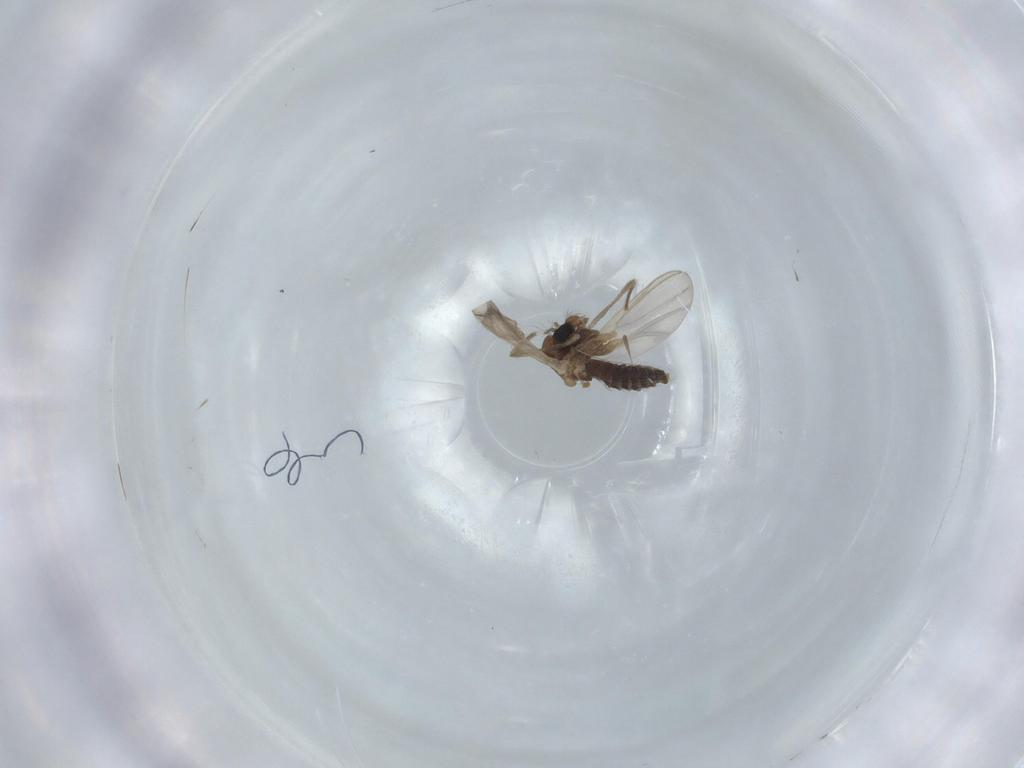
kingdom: Animalia
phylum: Arthropoda
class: Insecta
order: Diptera
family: Chironomidae
